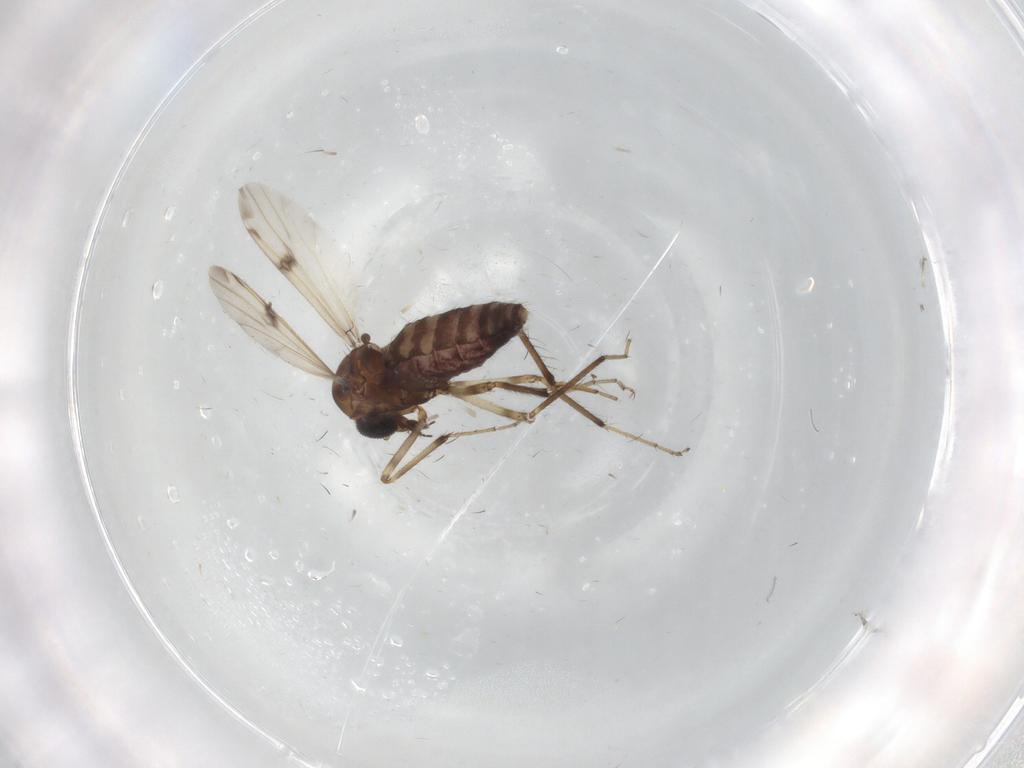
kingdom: Animalia
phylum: Arthropoda
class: Insecta
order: Diptera
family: Ceratopogonidae
